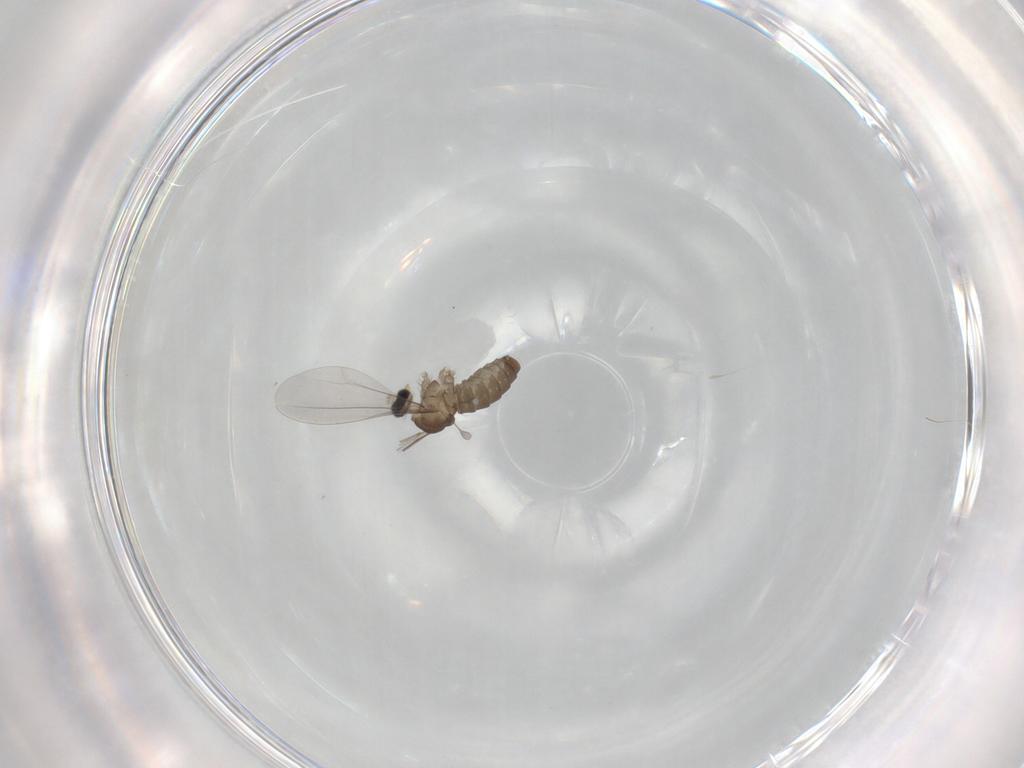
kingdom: Animalia
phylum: Arthropoda
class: Insecta
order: Diptera
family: Cecidomyiidae
